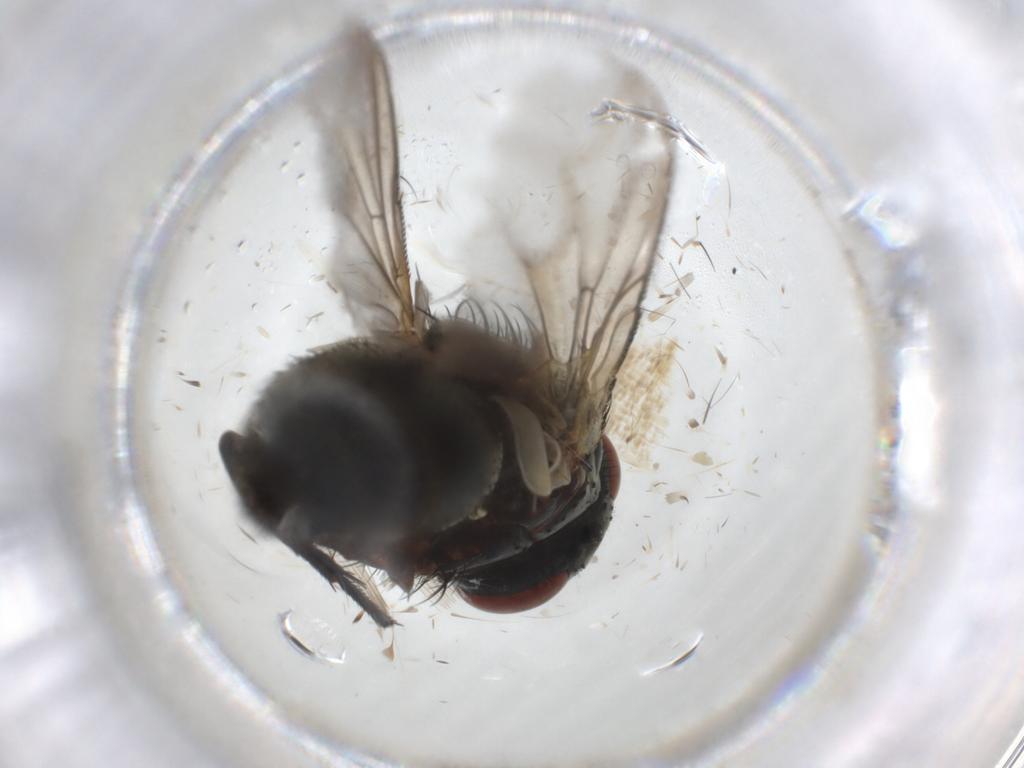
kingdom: Animalia
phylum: Arthropoda
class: Insecta
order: Diptera
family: Sarcophagidae
